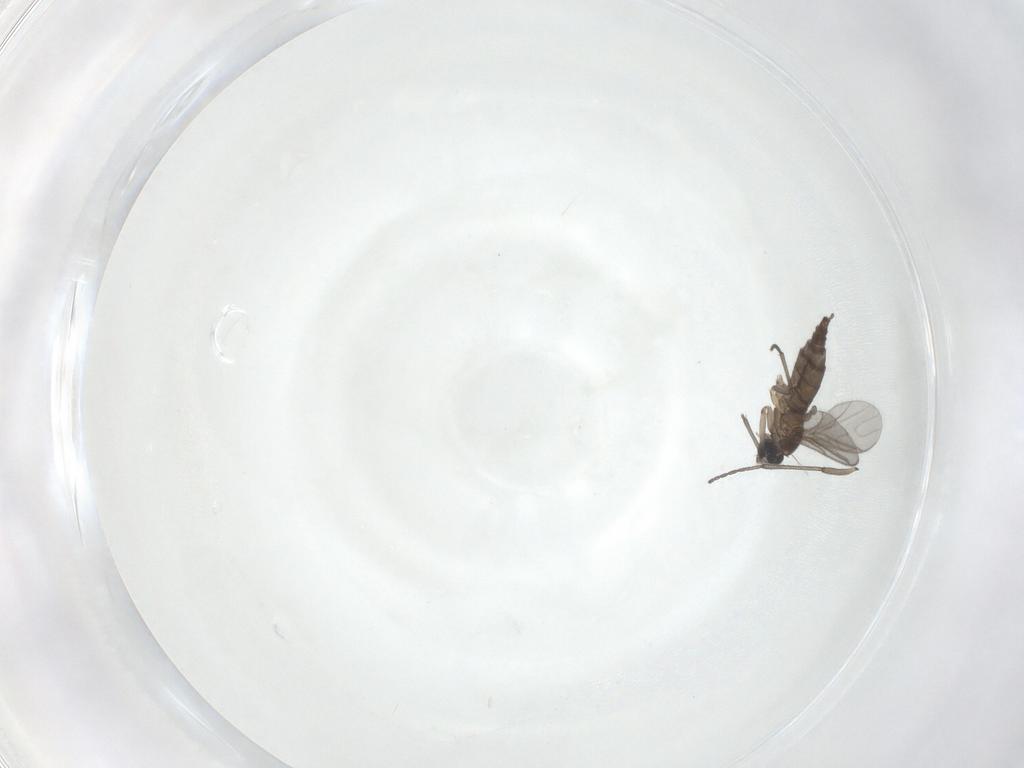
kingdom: Animalia
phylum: Arthropoda
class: Insecta
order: Diptera
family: Sciaridae
